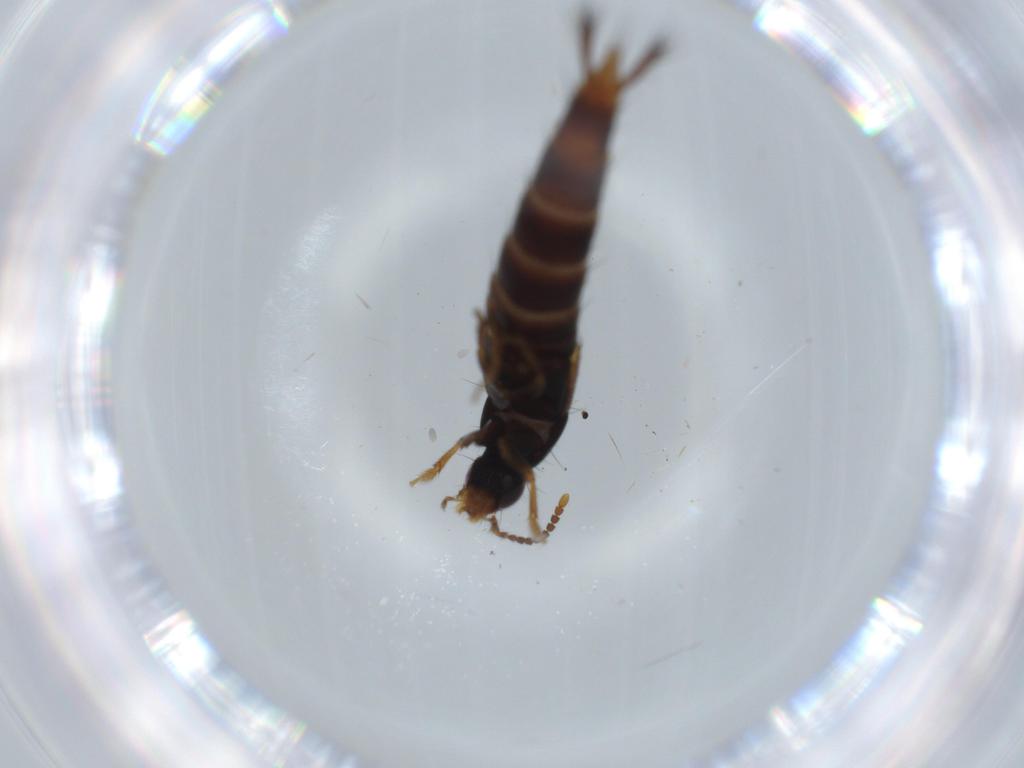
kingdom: Animalia
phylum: Arthropoda
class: Insecta
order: Coleoptera
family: Staphylinidae
